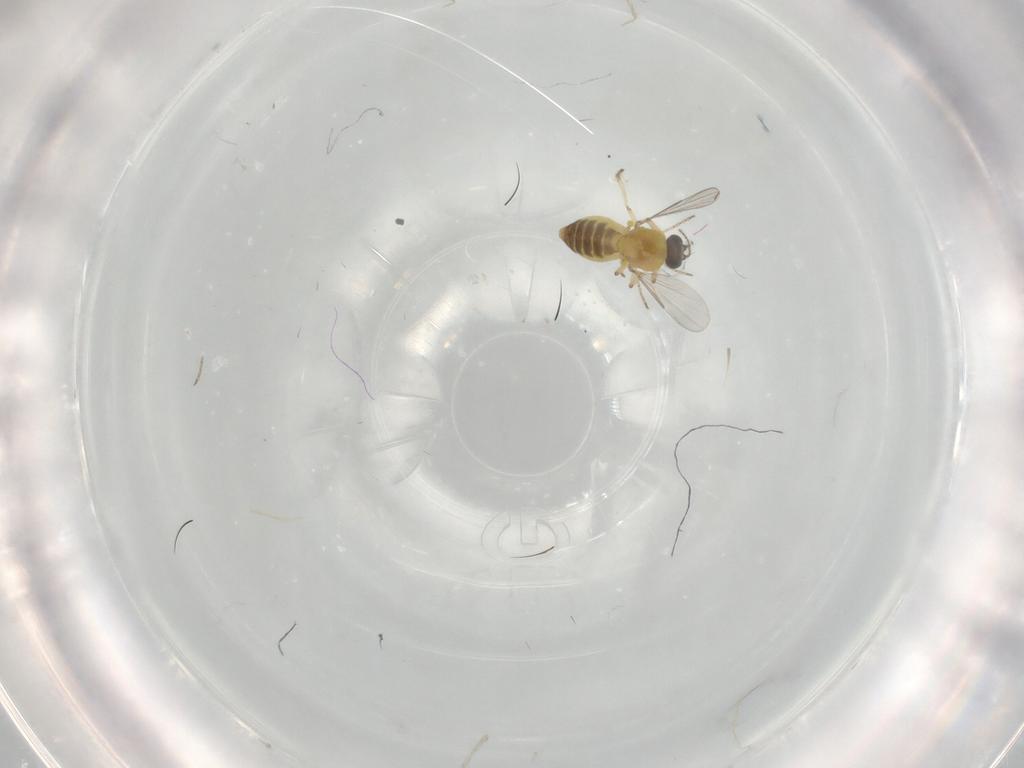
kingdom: Animalia
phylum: Arthropoda
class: Insecta
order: Diptera
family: Ceratopogonidae
